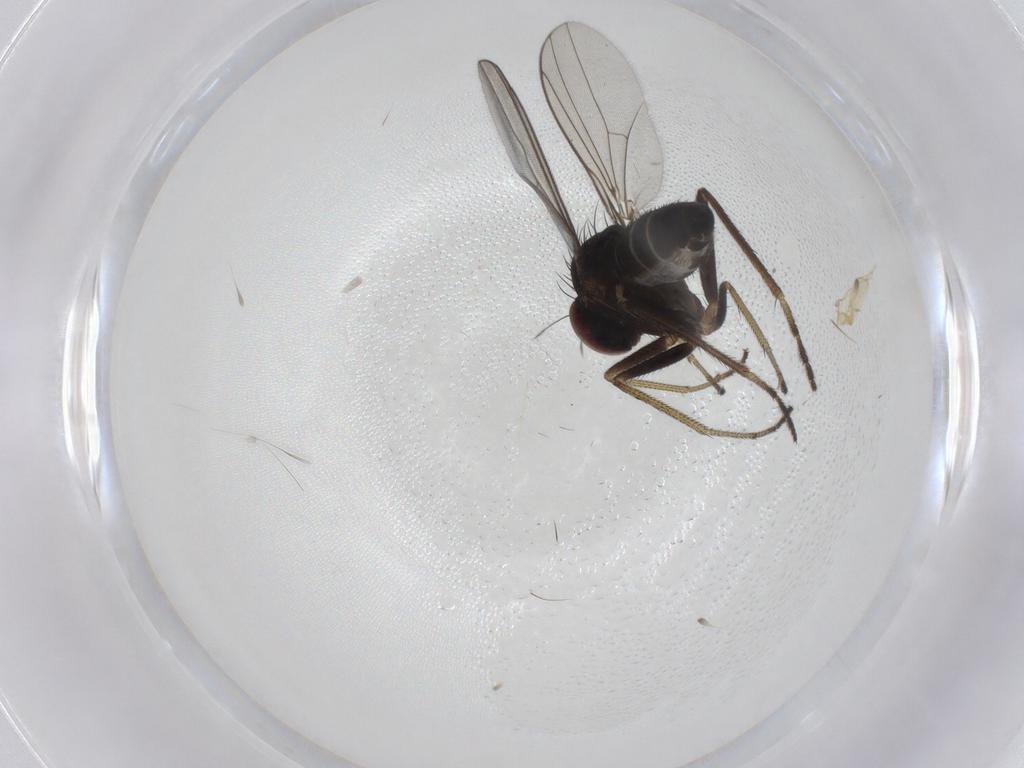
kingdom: Animalia
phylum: Arthropoda
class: Insecta
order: Diptera
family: Cecidomyiidae
